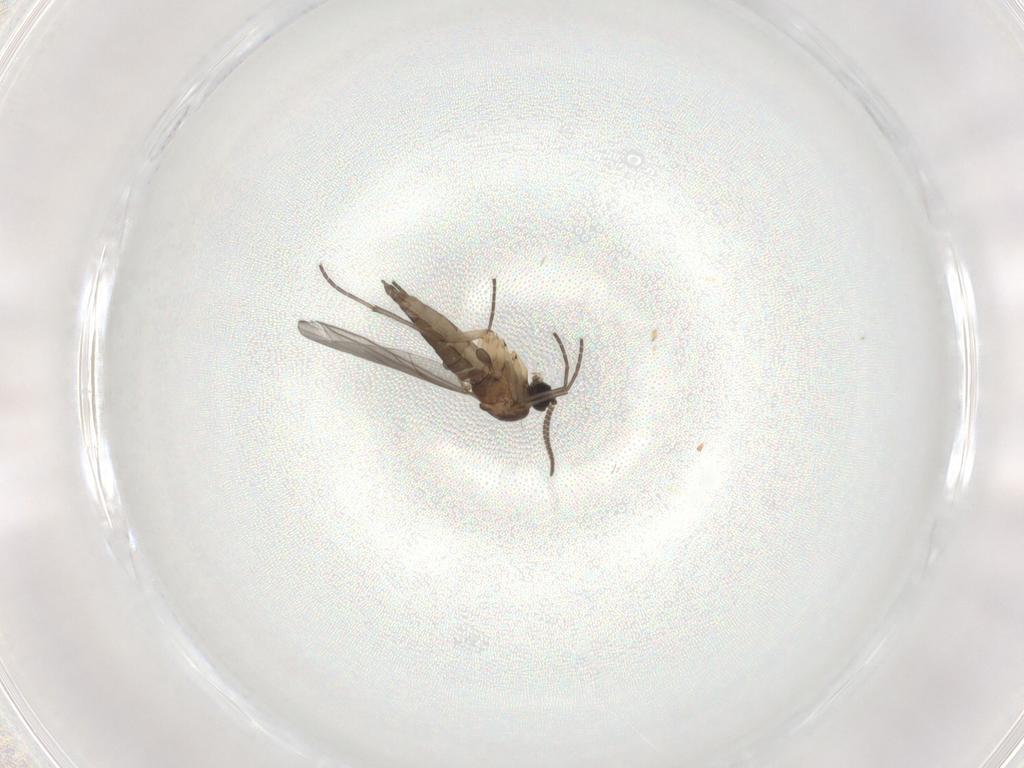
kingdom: Animalia
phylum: Arthropoda
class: Insecta
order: Diptera
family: Sciaridae
